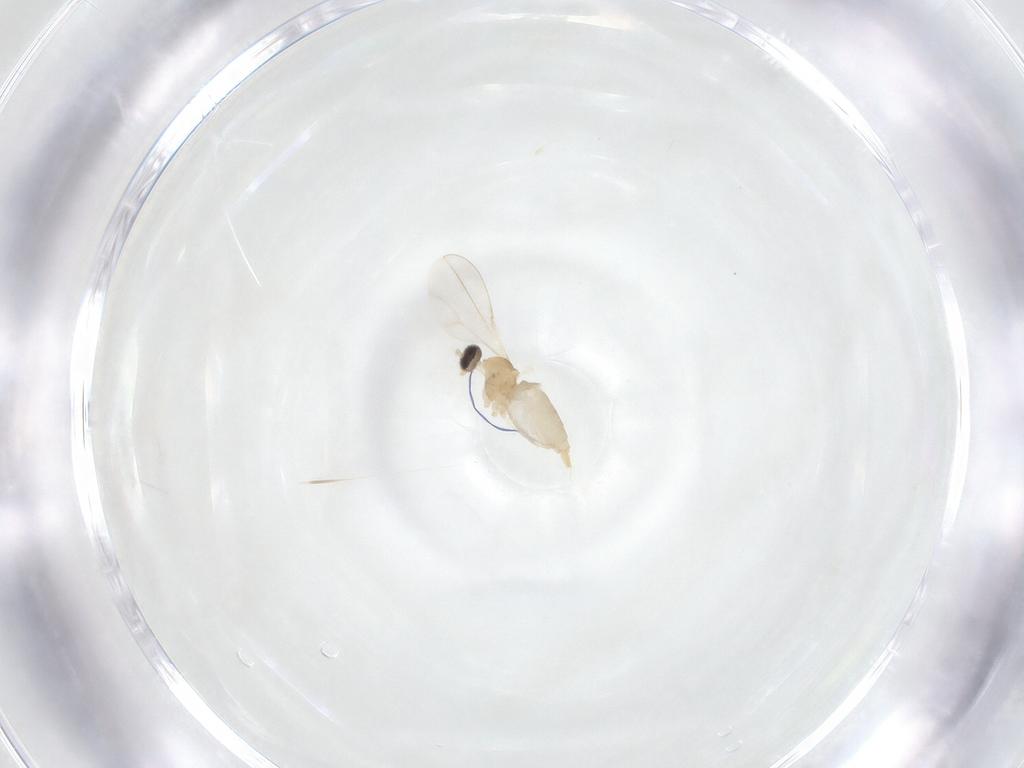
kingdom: Animalia
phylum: Arthropoda
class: Insecta
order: Diptera
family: Cecidomyiidae
